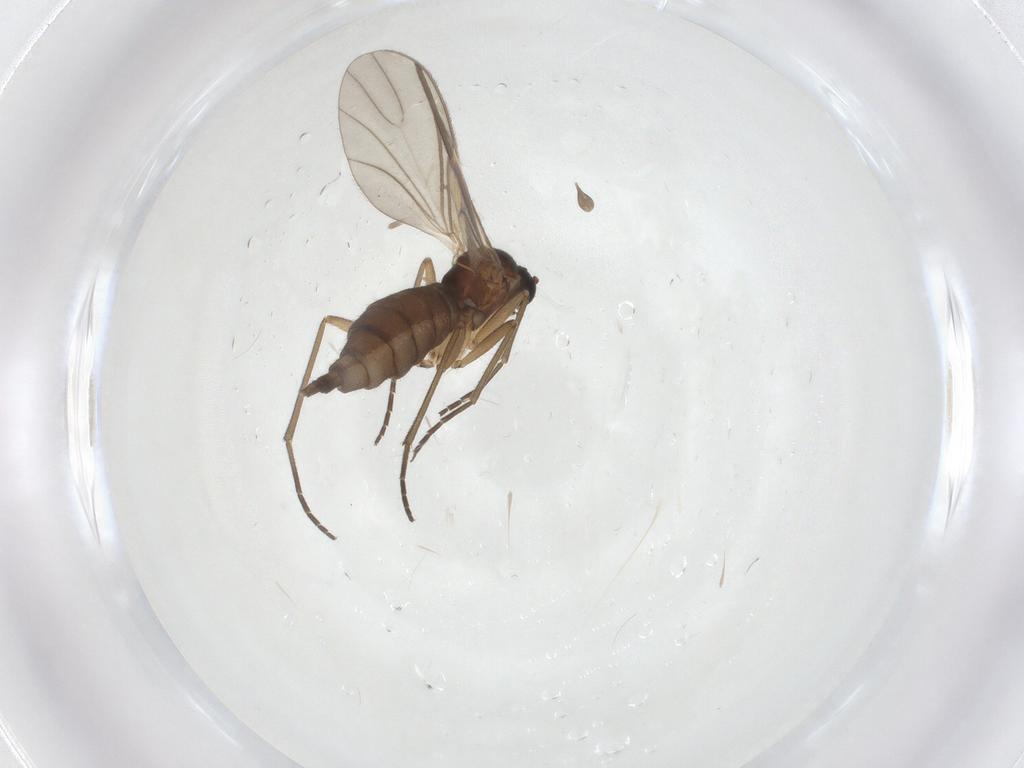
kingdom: Animalia
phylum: Arthropoda
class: Insecta
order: Diptera
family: Sciaridae
